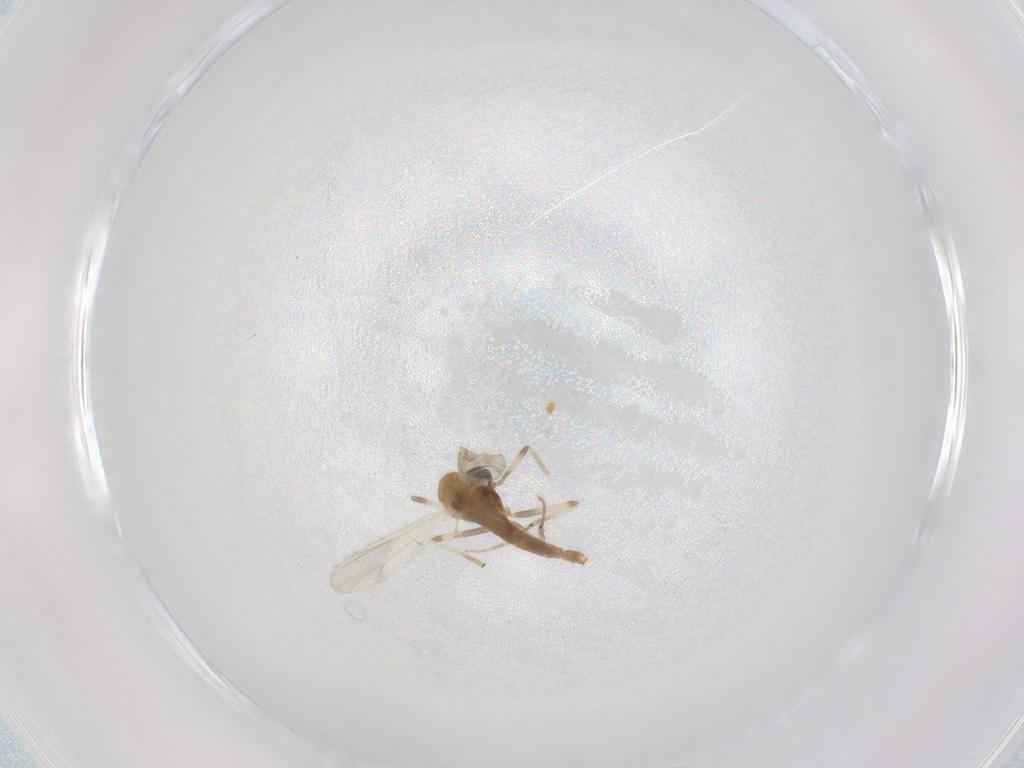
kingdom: Animalia
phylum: Arthropoda
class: Insecta
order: Diptera
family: Chironomidae
